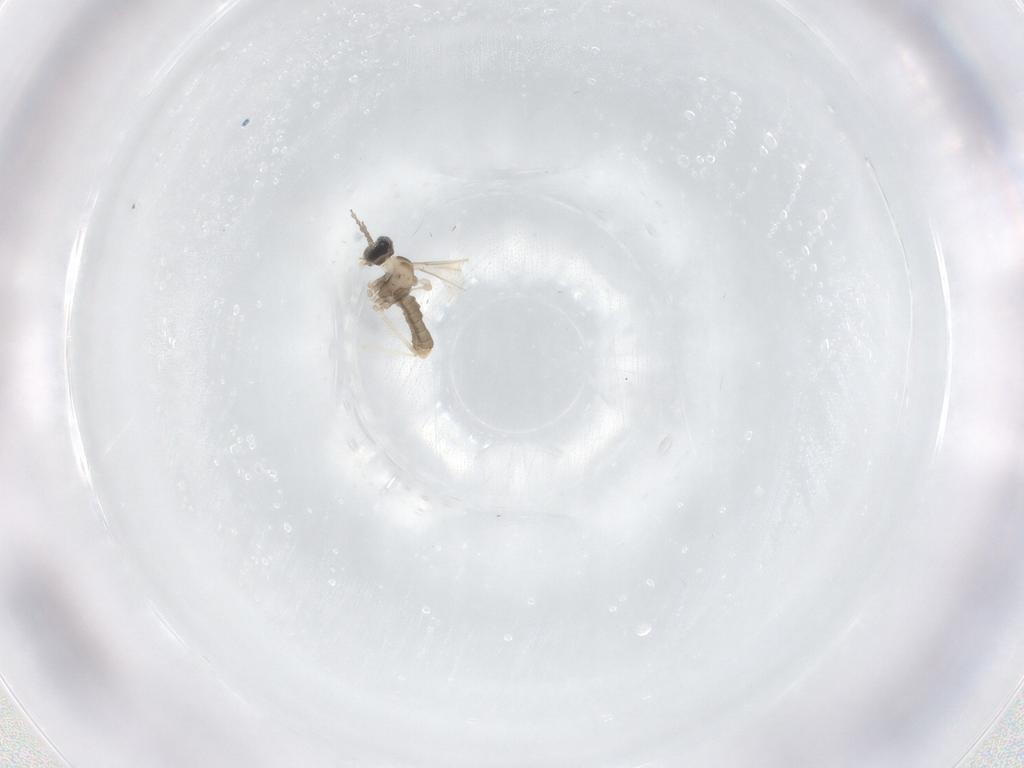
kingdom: Animalia
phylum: Arthropoda
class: Insecta
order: Diptera
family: Cecidomyiidae
